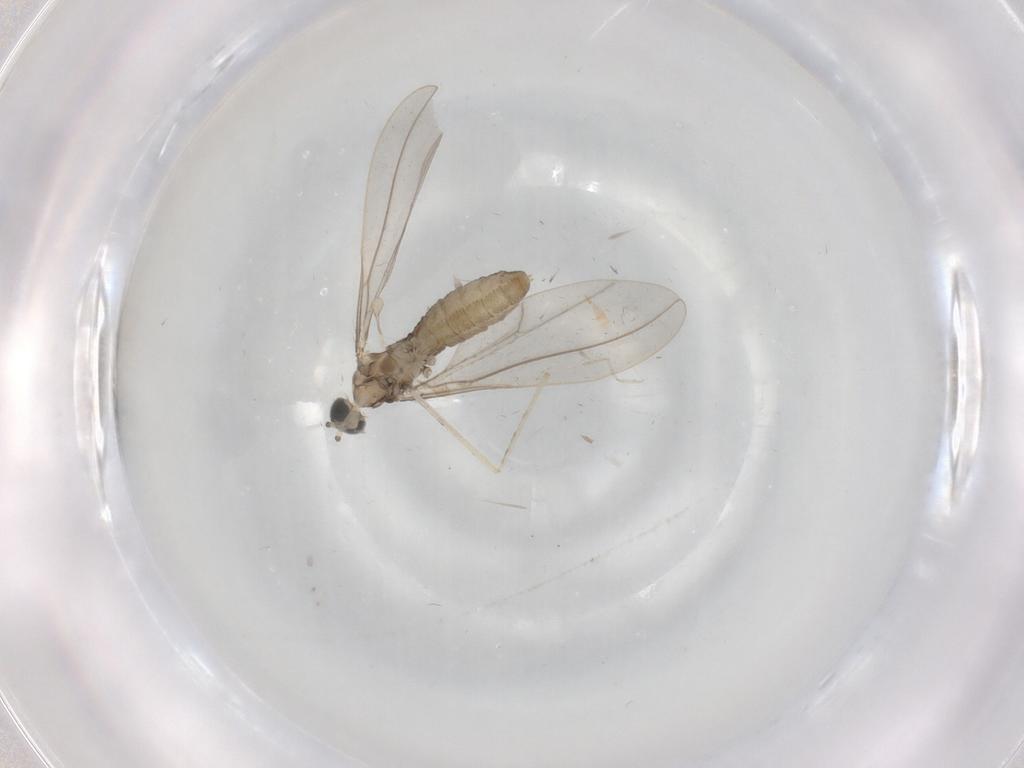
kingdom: Animalia
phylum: Arthropoda
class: Insecta
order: Diptera
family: Cecidomyiidae
